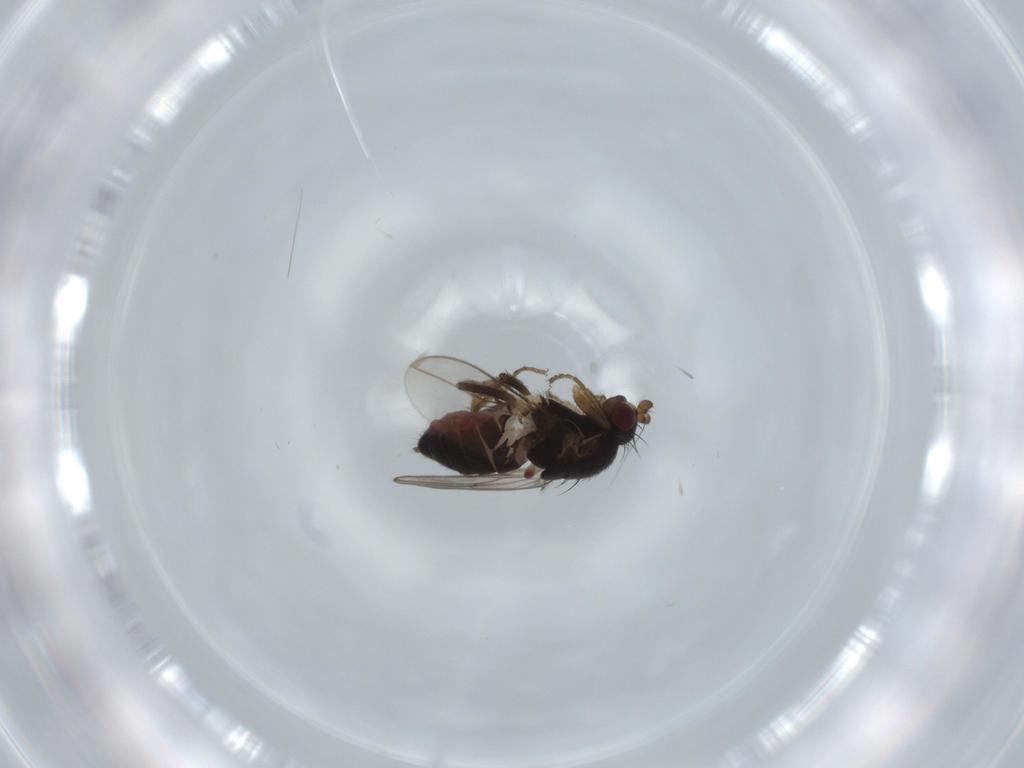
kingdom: Animalia
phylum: Arthropoda
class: Insecta
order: Diptera
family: Sphaeroceridae
